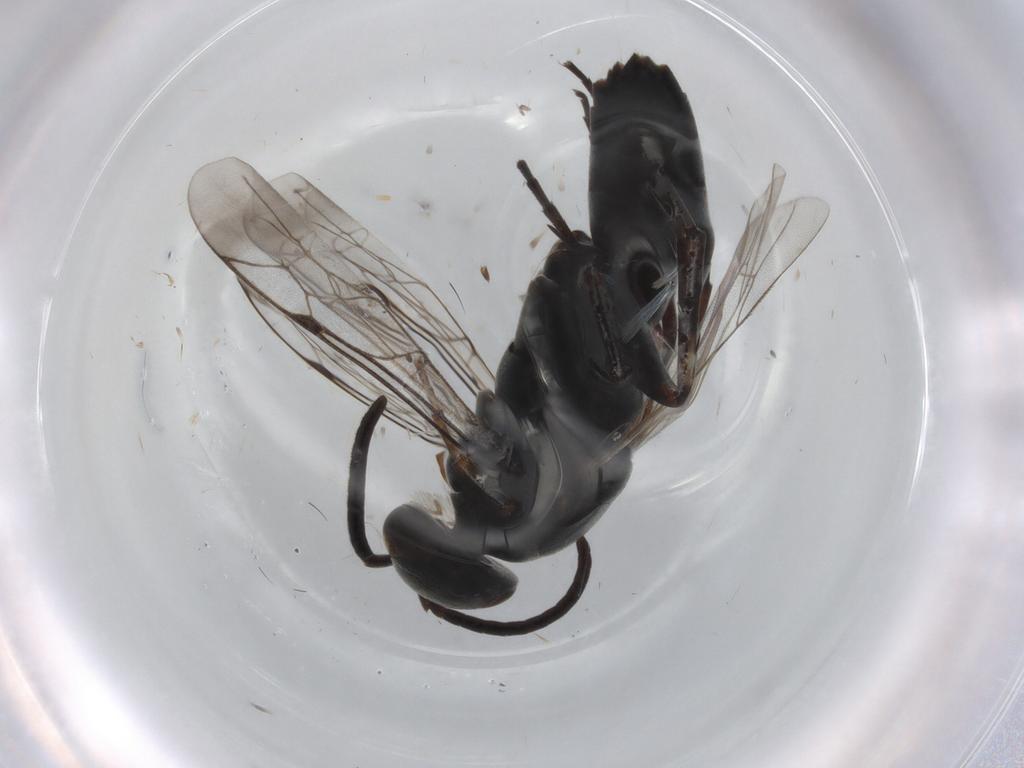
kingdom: Animalia
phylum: Arthropoda
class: Insecta
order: Hymenoptera
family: Pompilidae
